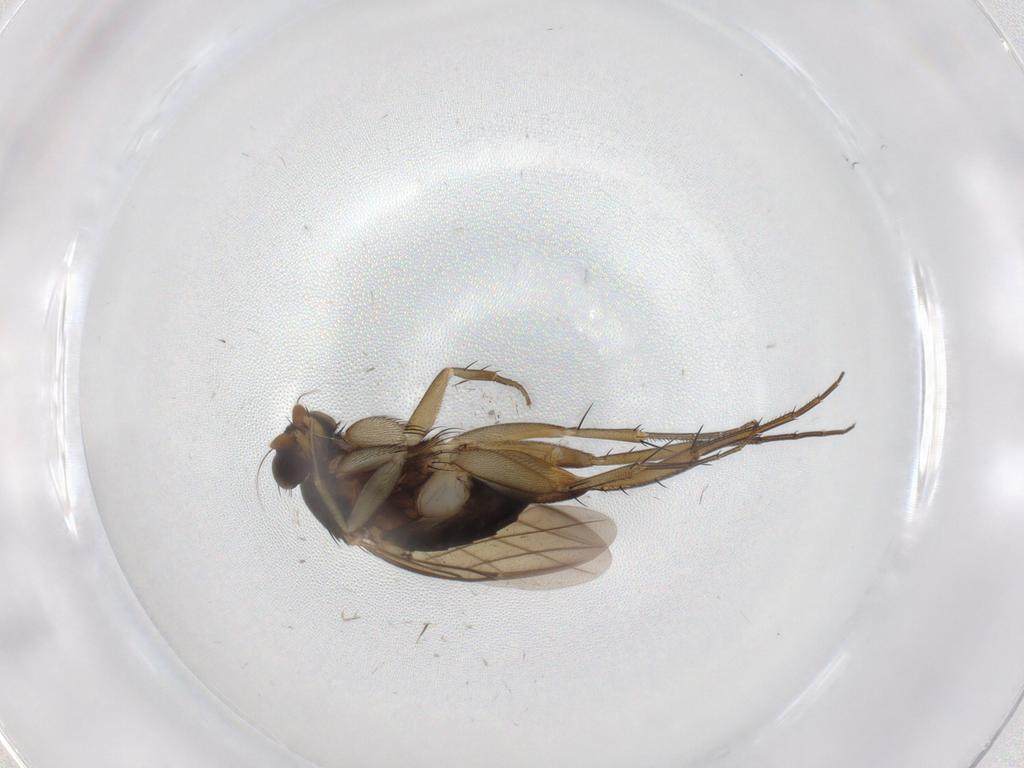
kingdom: Animalia
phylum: Arthropoda
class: Insecta
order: Diptera
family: Phoridae
